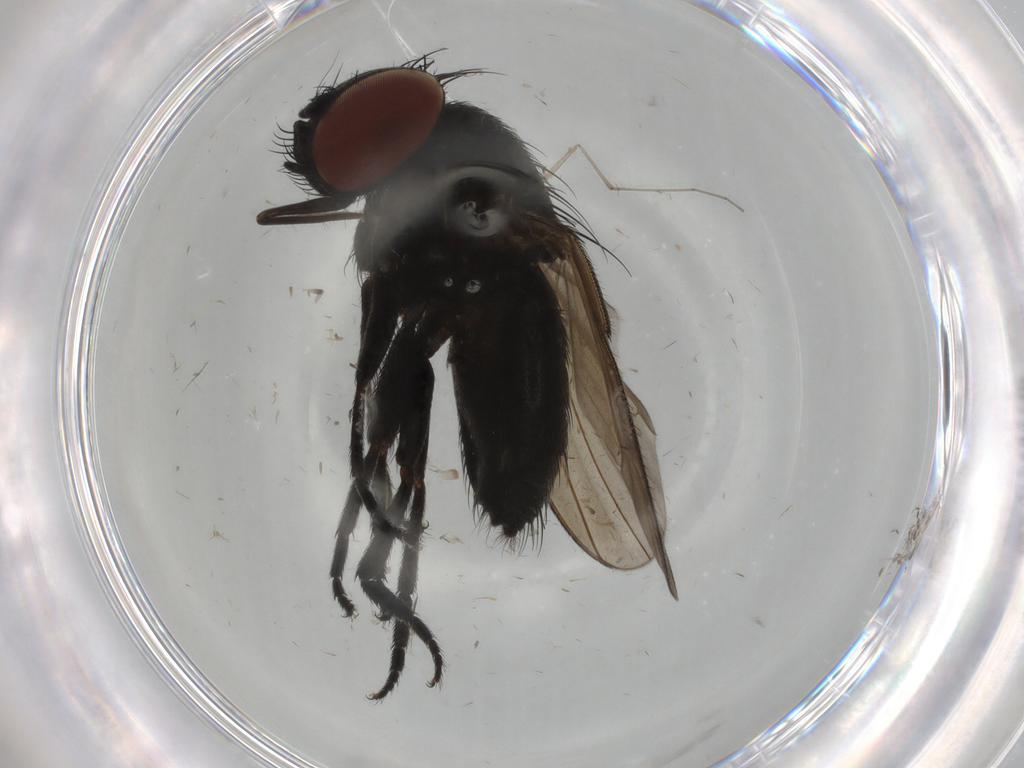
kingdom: Animalia
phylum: Arthropoda
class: Insecta
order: Diptera
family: Milichiidae
